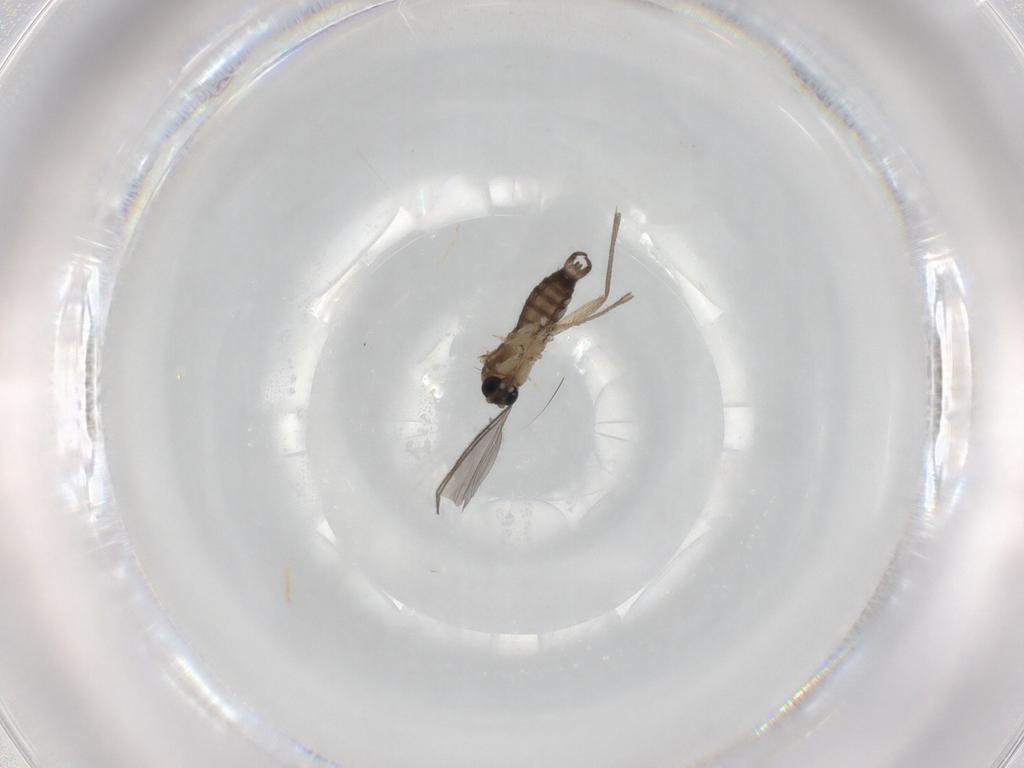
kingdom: Animalia
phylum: Arthropoda
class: Insecta
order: Diptera
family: Sciaridae
